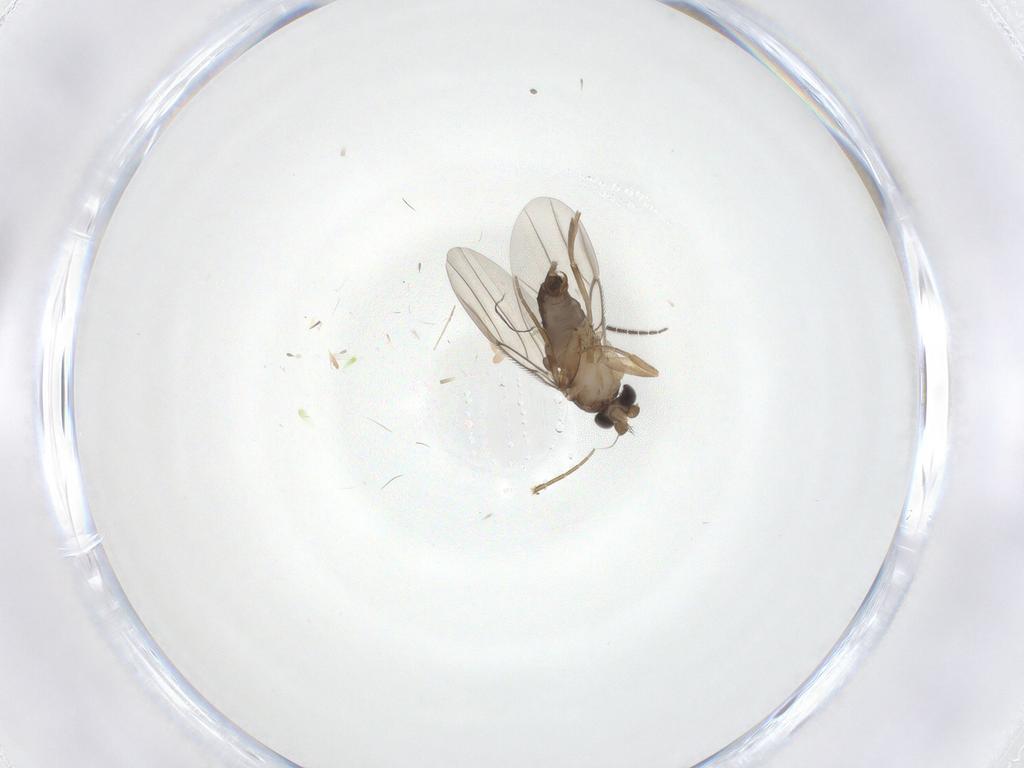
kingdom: Animalia
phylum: Arthropoda
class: Insecta
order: Diptera
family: Phoridae
